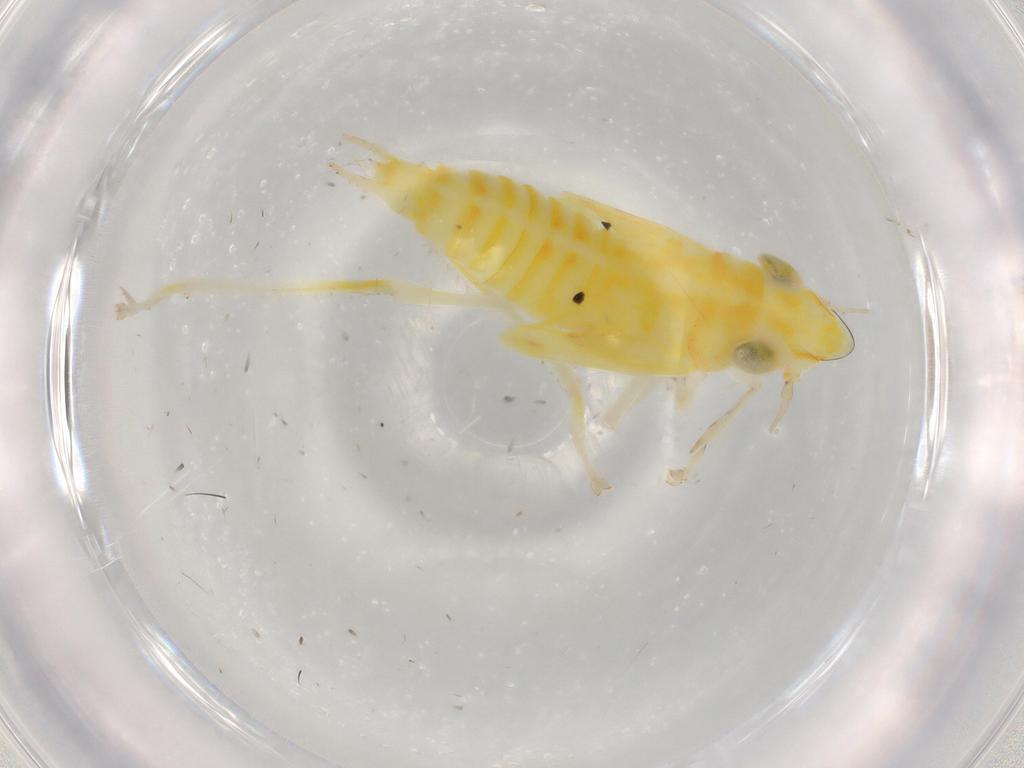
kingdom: Animalia
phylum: Arthropoda
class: Insecta
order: Hemiptera
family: Cicadellidae
